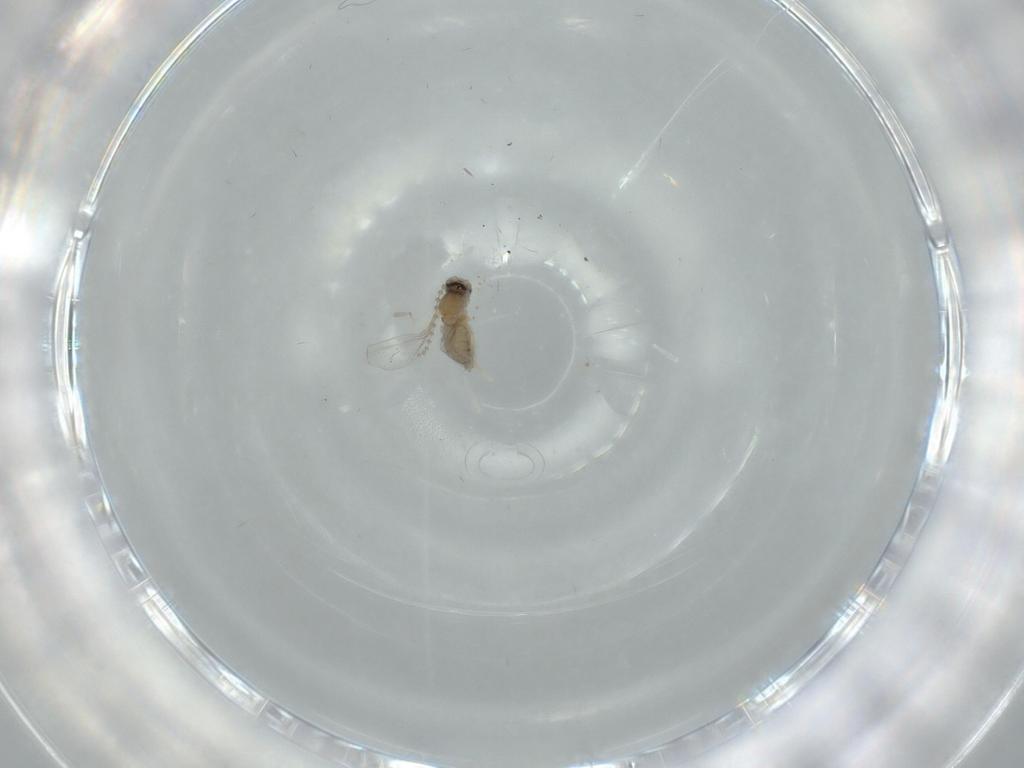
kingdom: Animalia
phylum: Arthropoda
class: Insecta
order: Diptera
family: Cecidomyiidae
